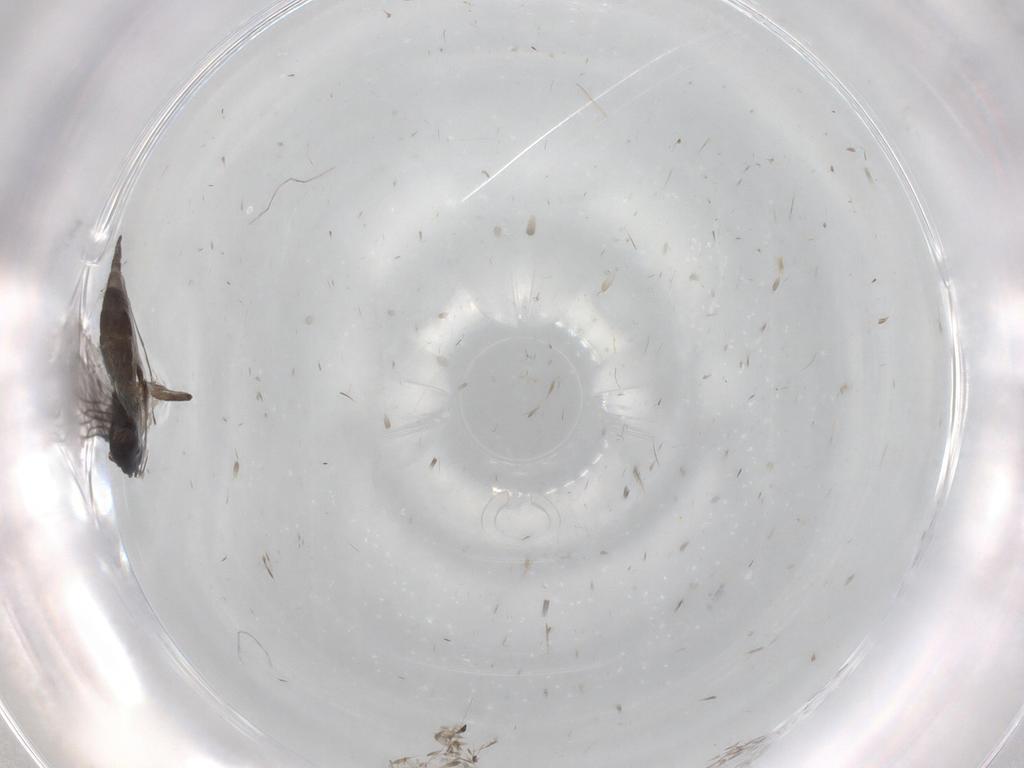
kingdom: Animalia
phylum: Arthropoda
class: Insecta
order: Diptera
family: Sciaridae
